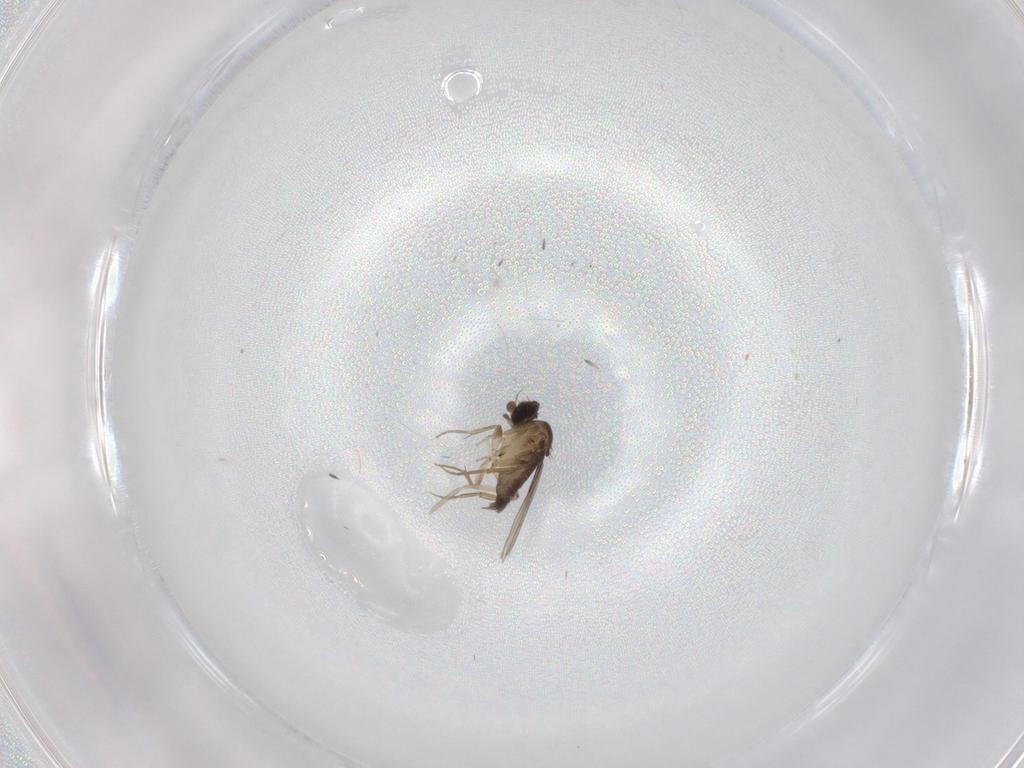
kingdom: Animalia
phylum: Arthropoda
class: Insecta
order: Diptera
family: Phoridae
